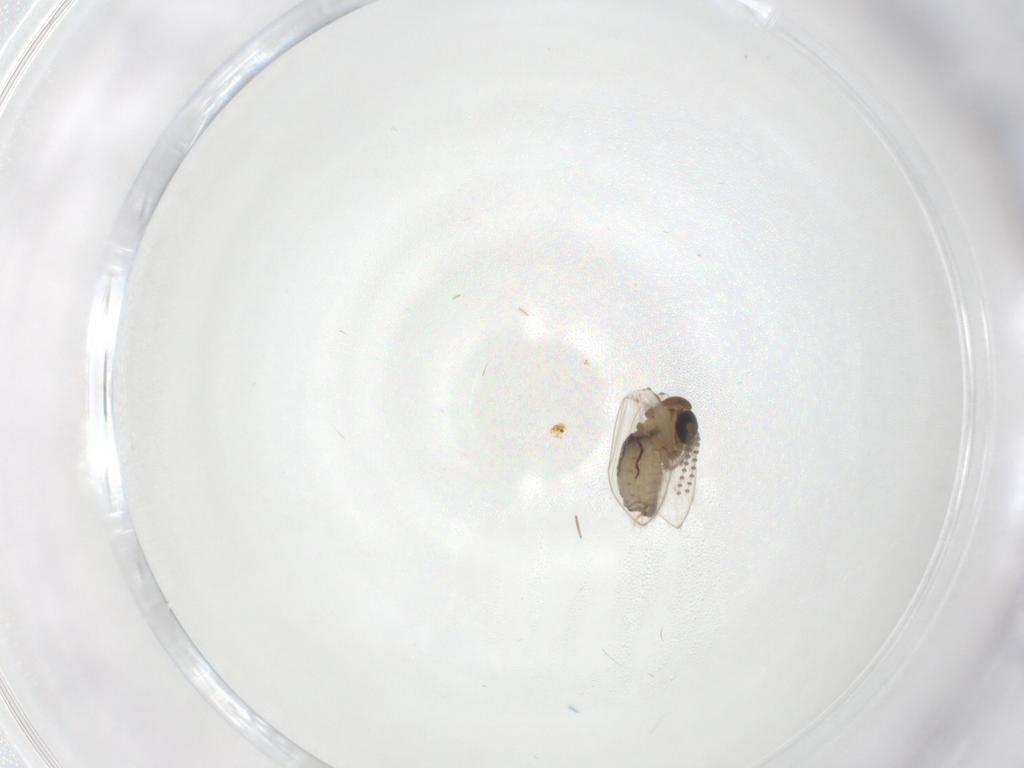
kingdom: Animalia
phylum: Arthropoda
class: Insecta
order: Diptera
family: Psychodidae
